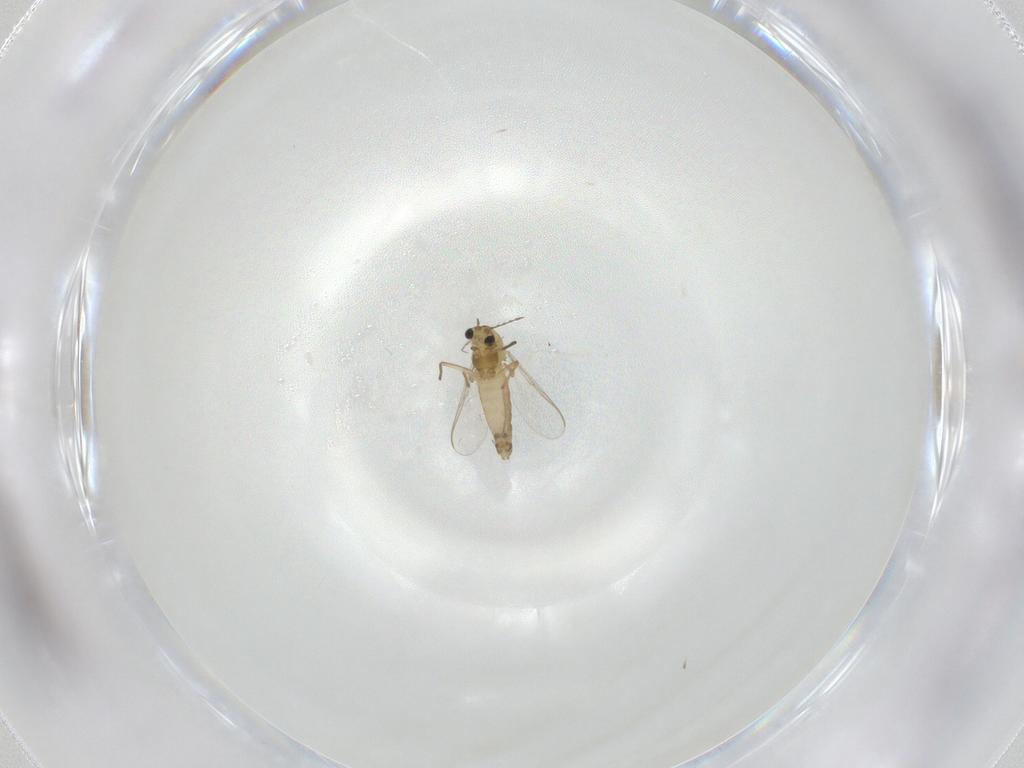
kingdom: Animalia
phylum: Arthropoda
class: Insecta
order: Diptera
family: Chironomidae
